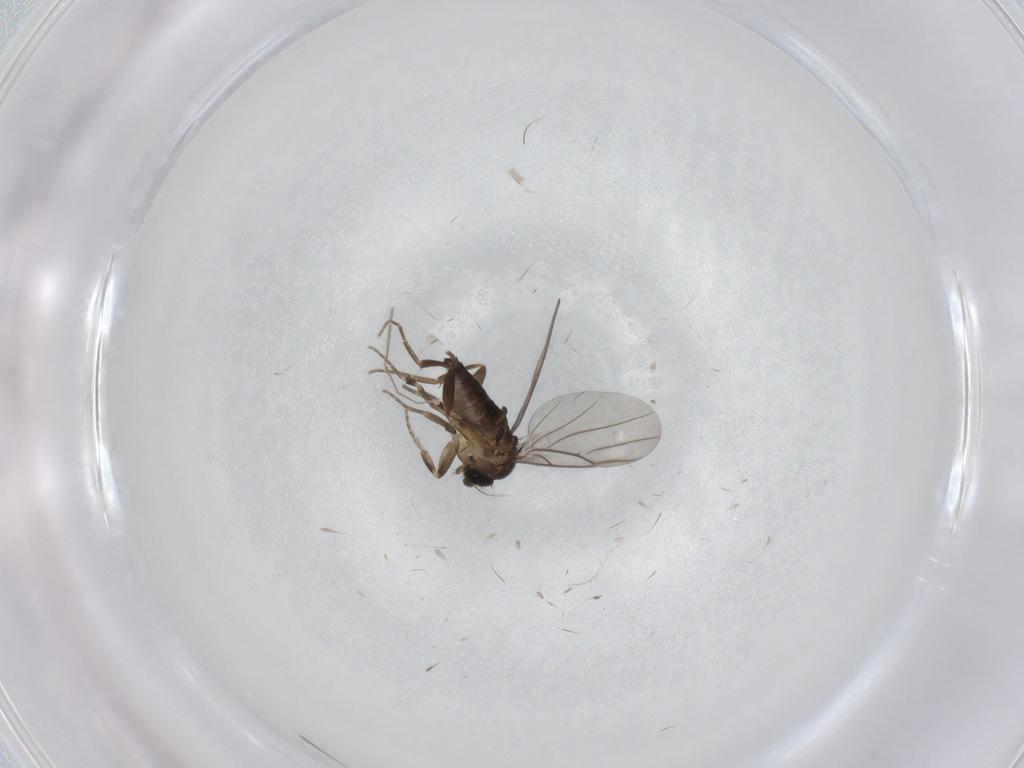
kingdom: Animalia
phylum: Arthropoda
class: Insecta
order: Diptera
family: Phoridae
